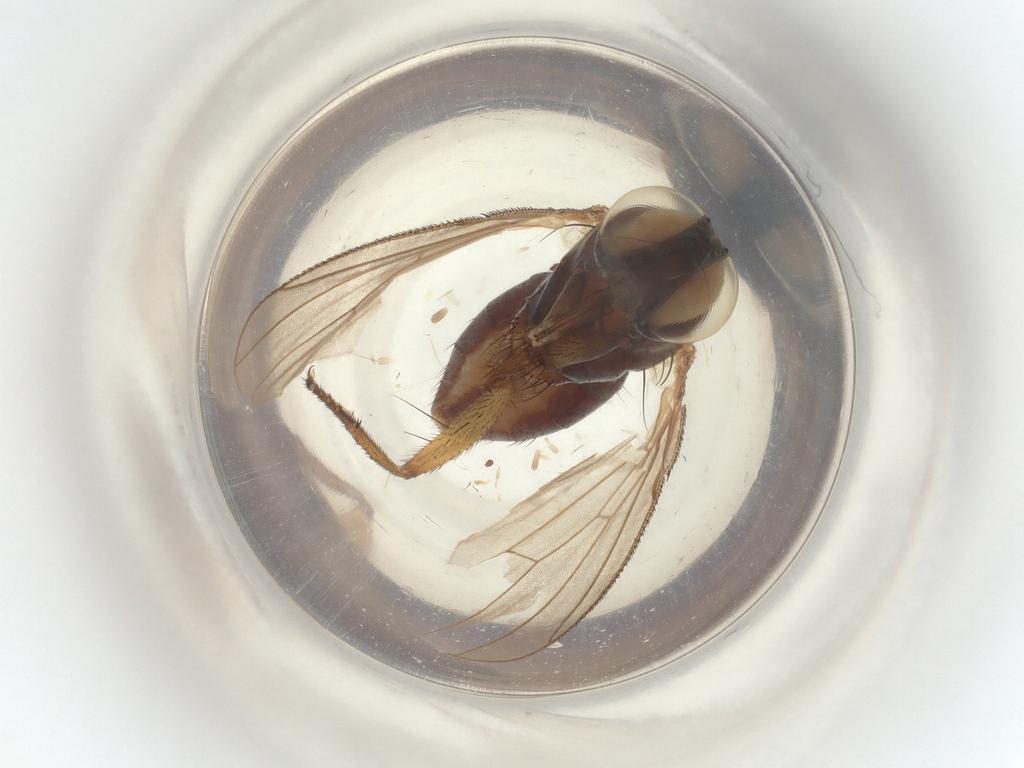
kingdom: Animalia
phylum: Arthropoda
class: Insecta
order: Diptera
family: Muscidae
